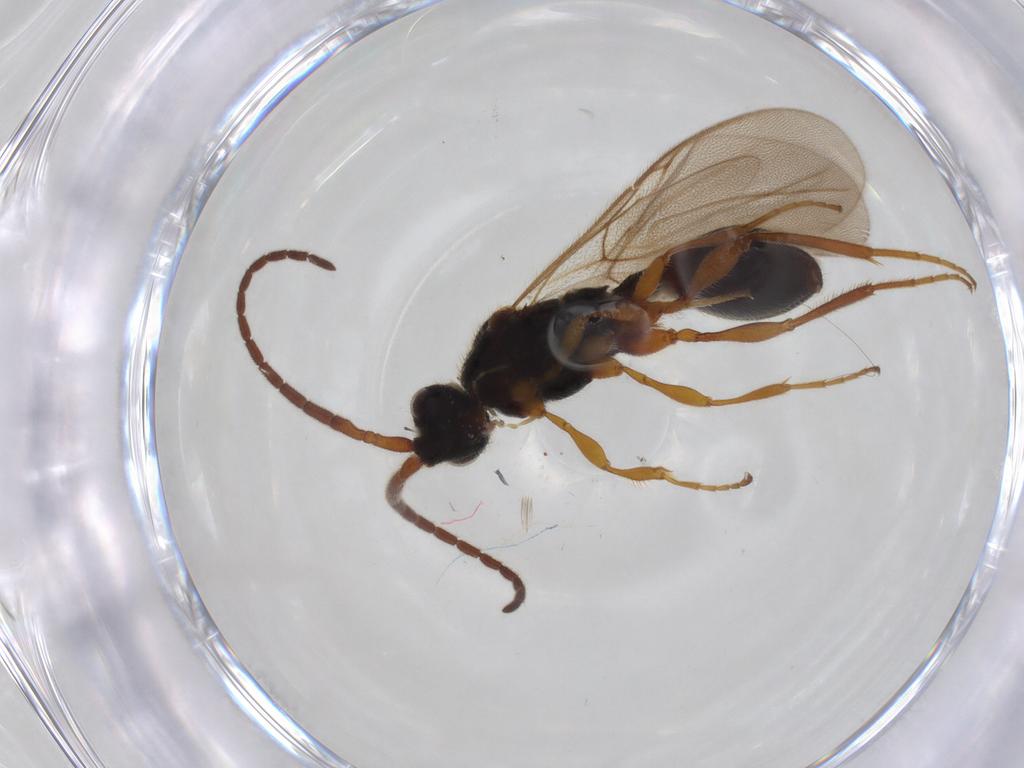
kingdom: Animalia
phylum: Arthropoda
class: Insecta
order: Hymenoptera
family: Diapriidae
